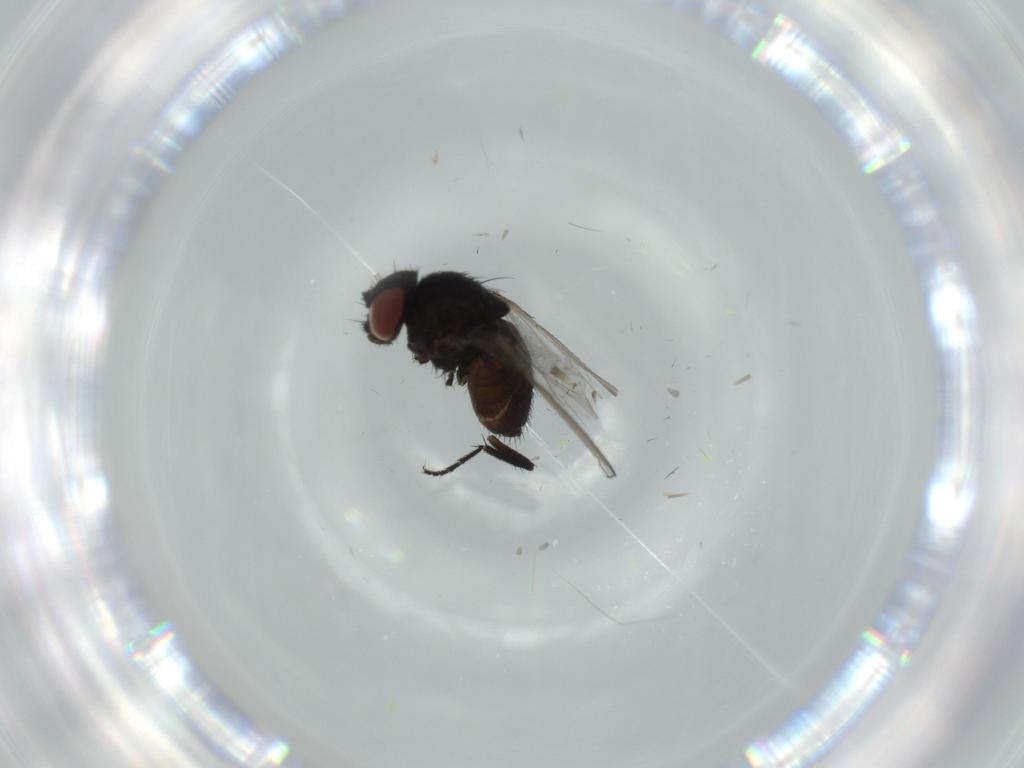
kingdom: Animalia
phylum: Arthropoda
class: Insecta
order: Diptera
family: Milichiidae
